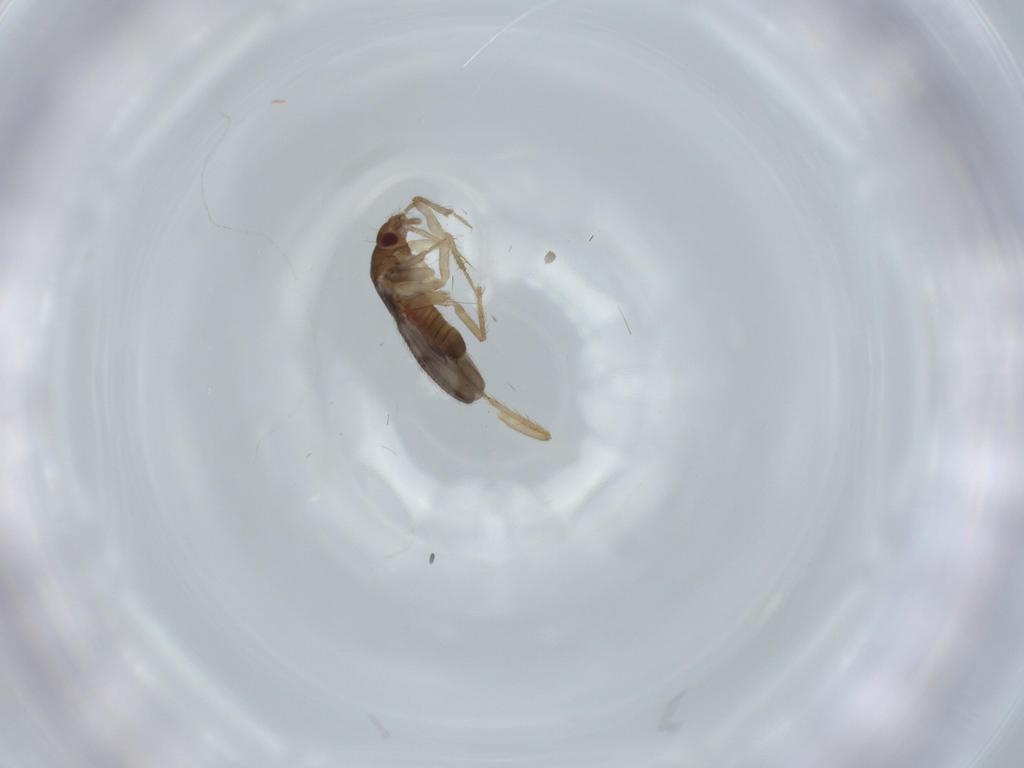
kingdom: Animalia
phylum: Arthropoda
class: Insecta
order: Hemiptera
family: Ceratocombidae
